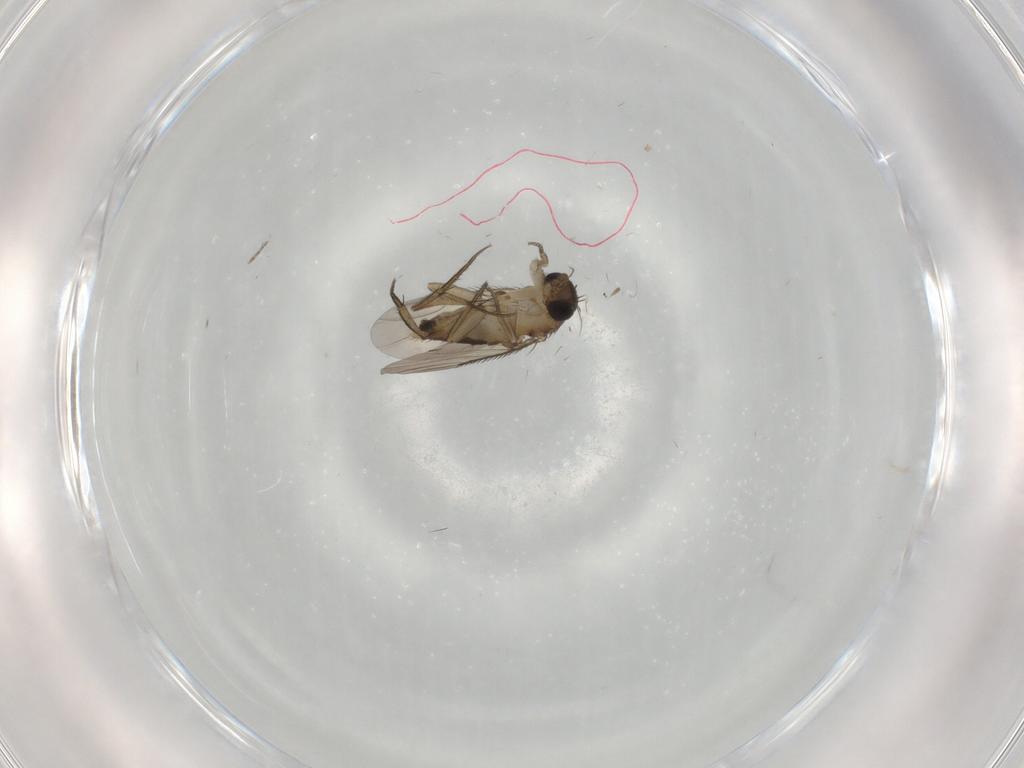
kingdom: Animalia
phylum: Arthropoda
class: Insecta
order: Diptera
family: Phoridae
